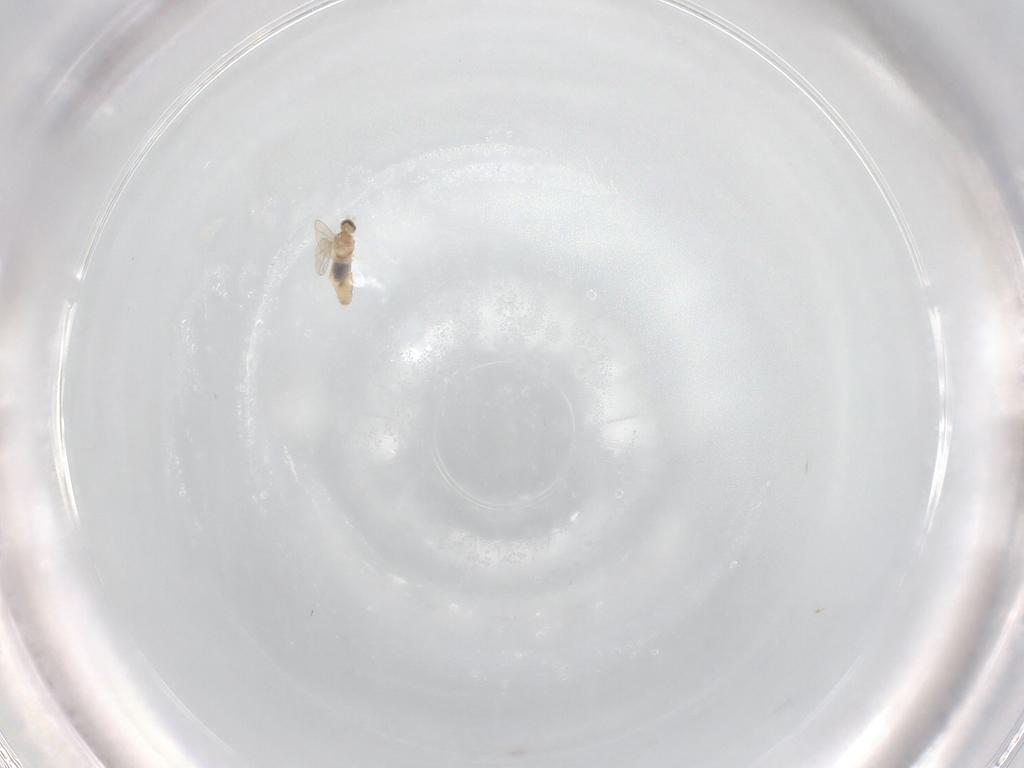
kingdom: Animalia
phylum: Arthropoda
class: Insecta
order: Diptera
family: Cecidomyiidae
